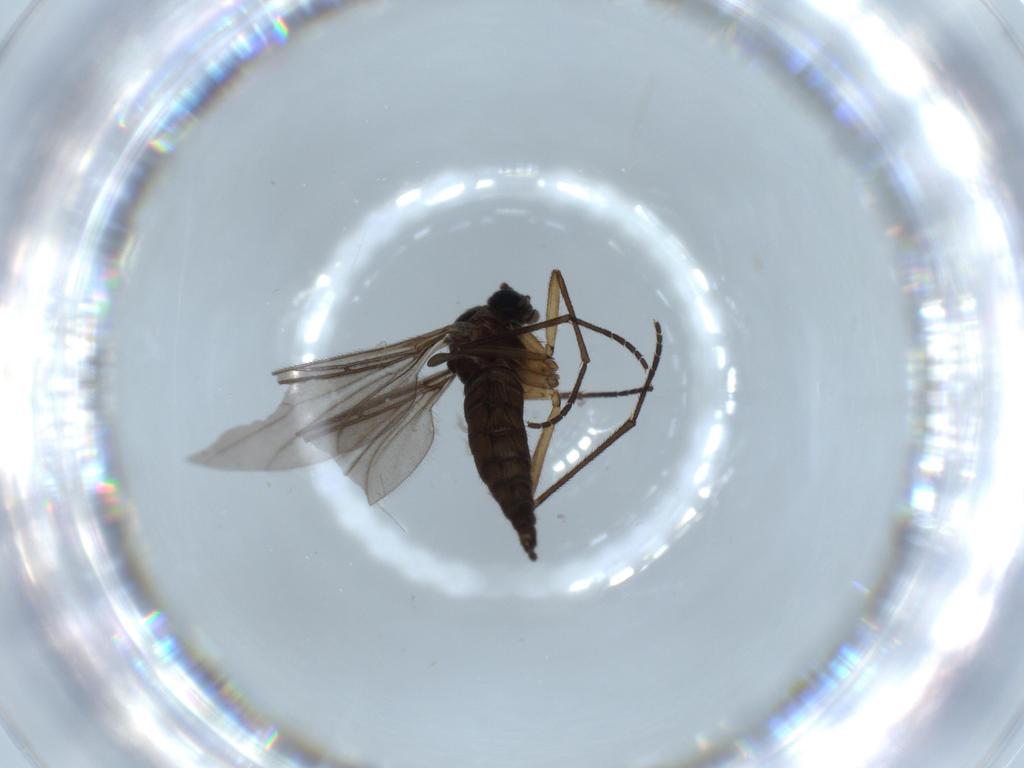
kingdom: Animalia
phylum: Arthropoda
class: Insecta
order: Diptera
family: Sciaridae
